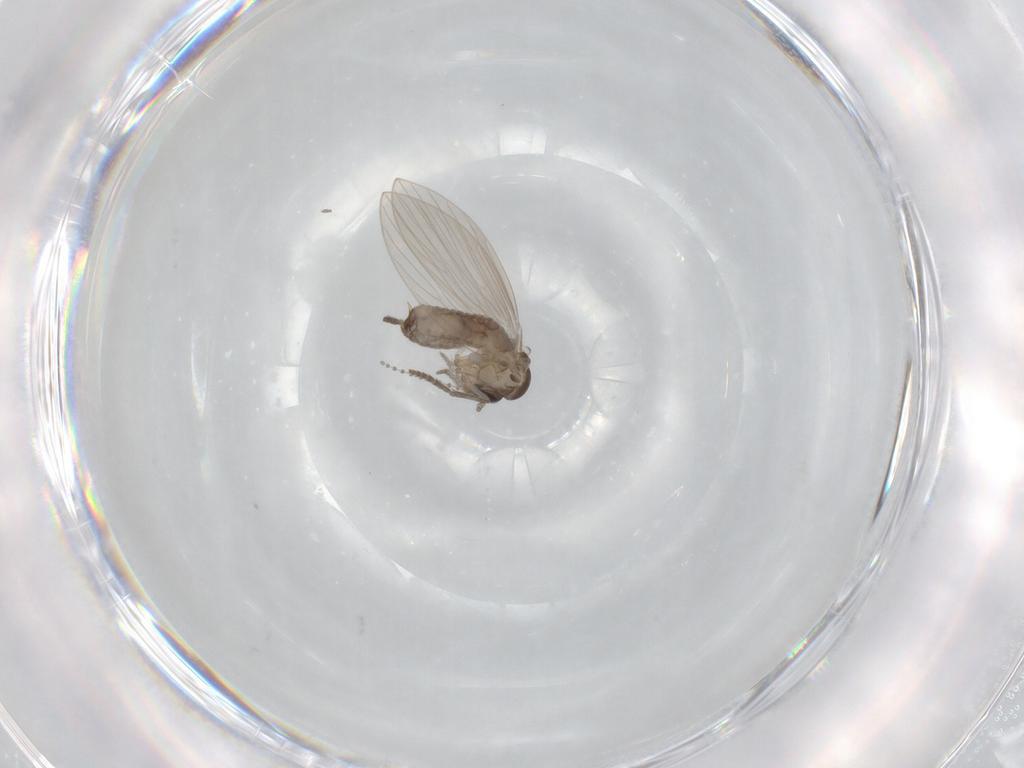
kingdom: Animalia
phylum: Arthropoda
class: Insecta
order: Diptera
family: Psychodidae
